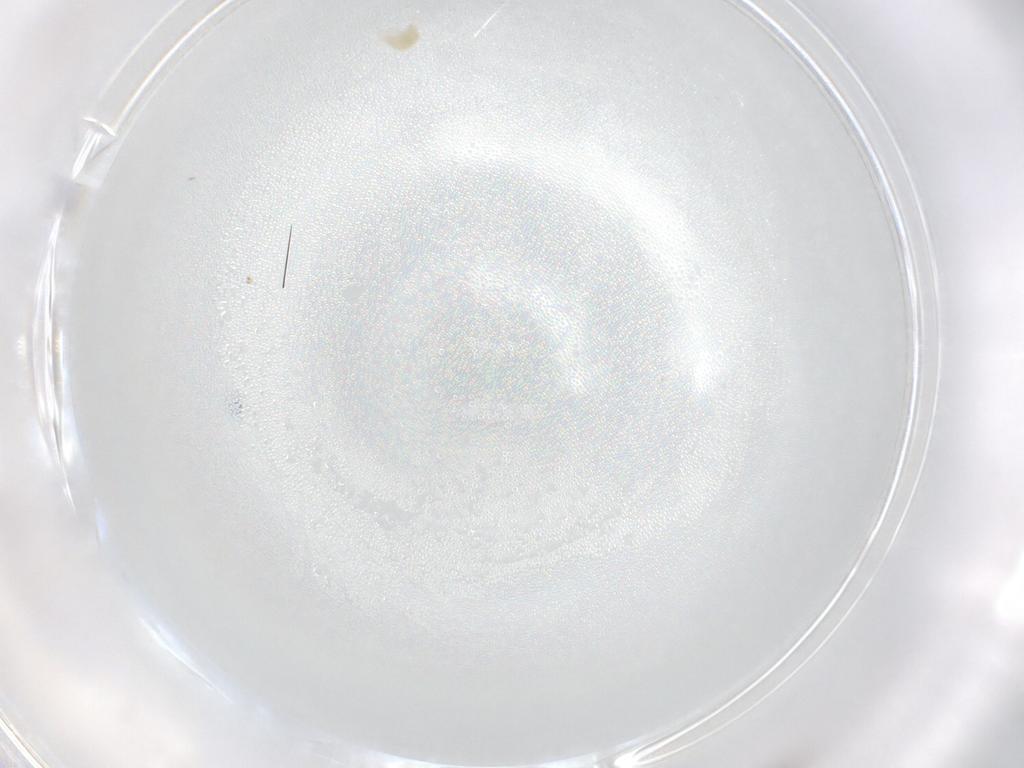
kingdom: Animalia
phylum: Arthropoda
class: Arachnida
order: Trombidiformes
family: Eupodidae
